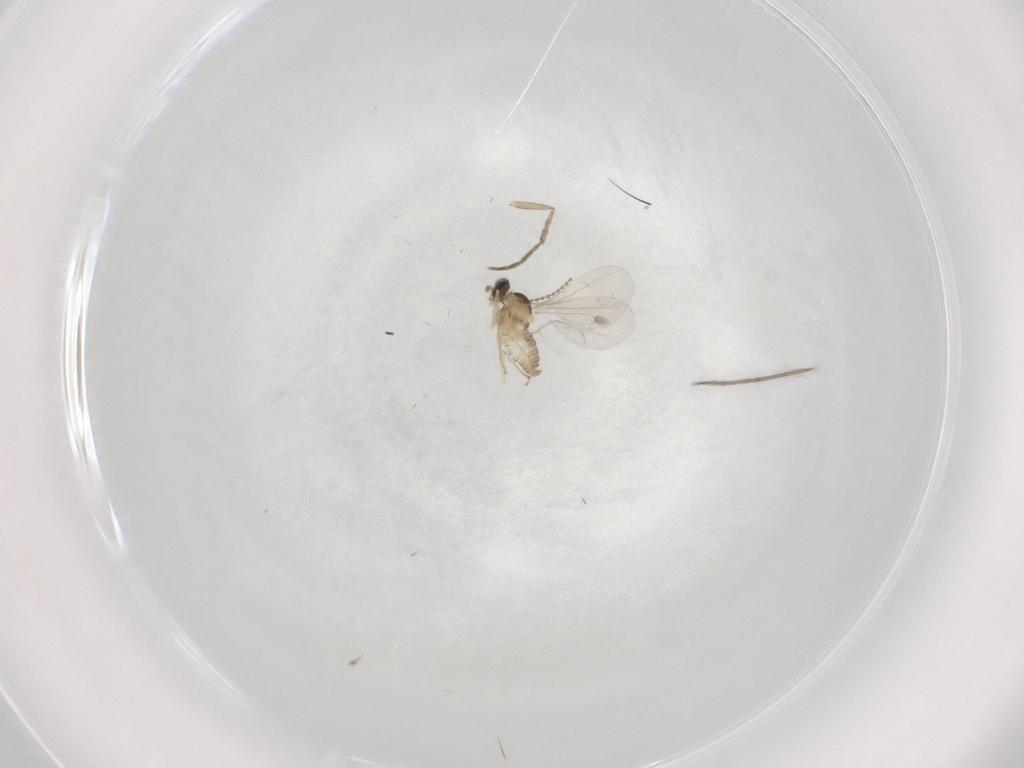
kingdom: Animalia
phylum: Arthropoda
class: Insecta
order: Diptera
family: Cecidomyiidae
